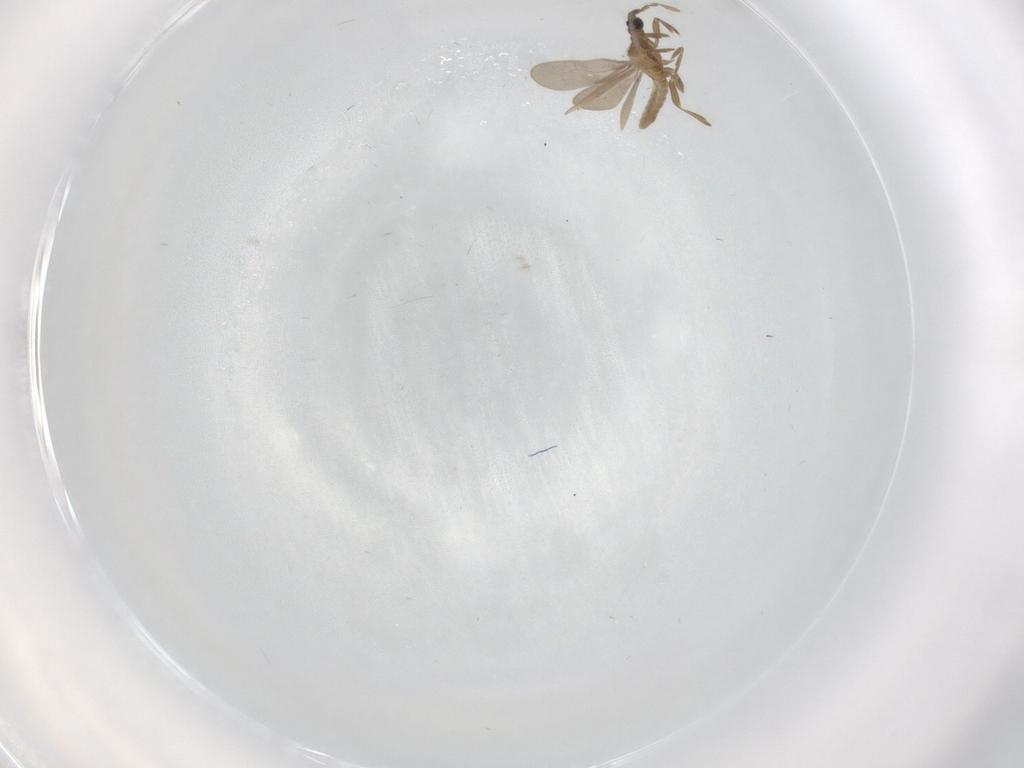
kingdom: Animalia
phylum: Arthropoda
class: Insecta
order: Hemiptera
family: Enicocephalidae
